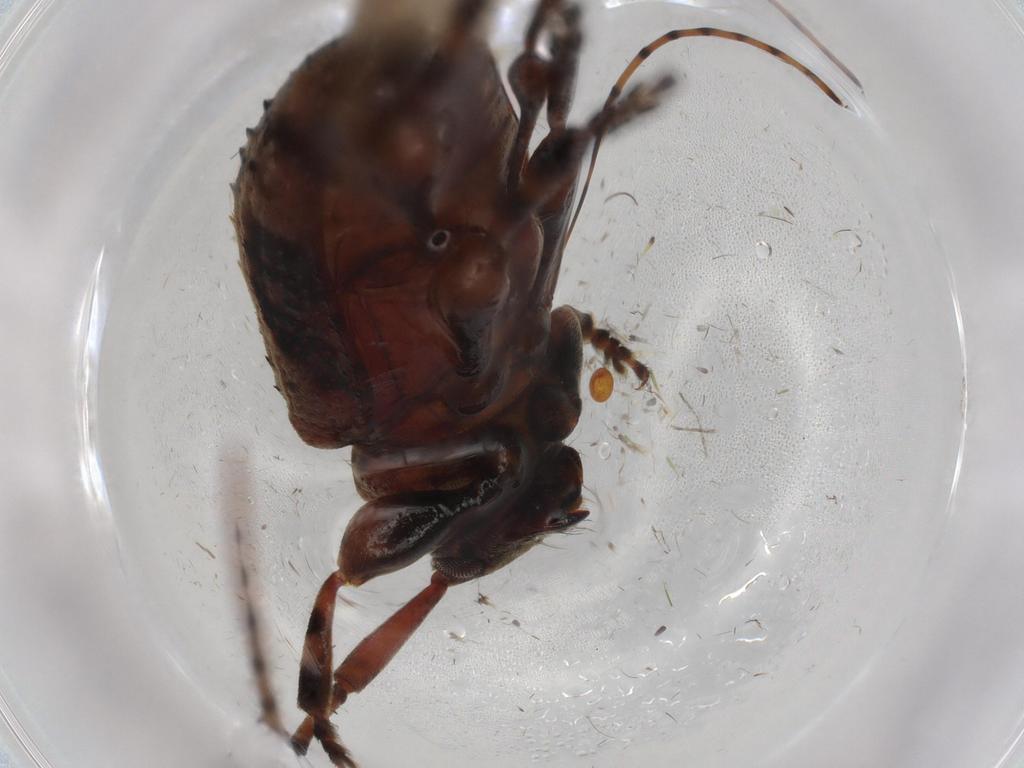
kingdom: Animalia
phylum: Arthropoda
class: Insecta
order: Coleoptera
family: Cerambycidae
